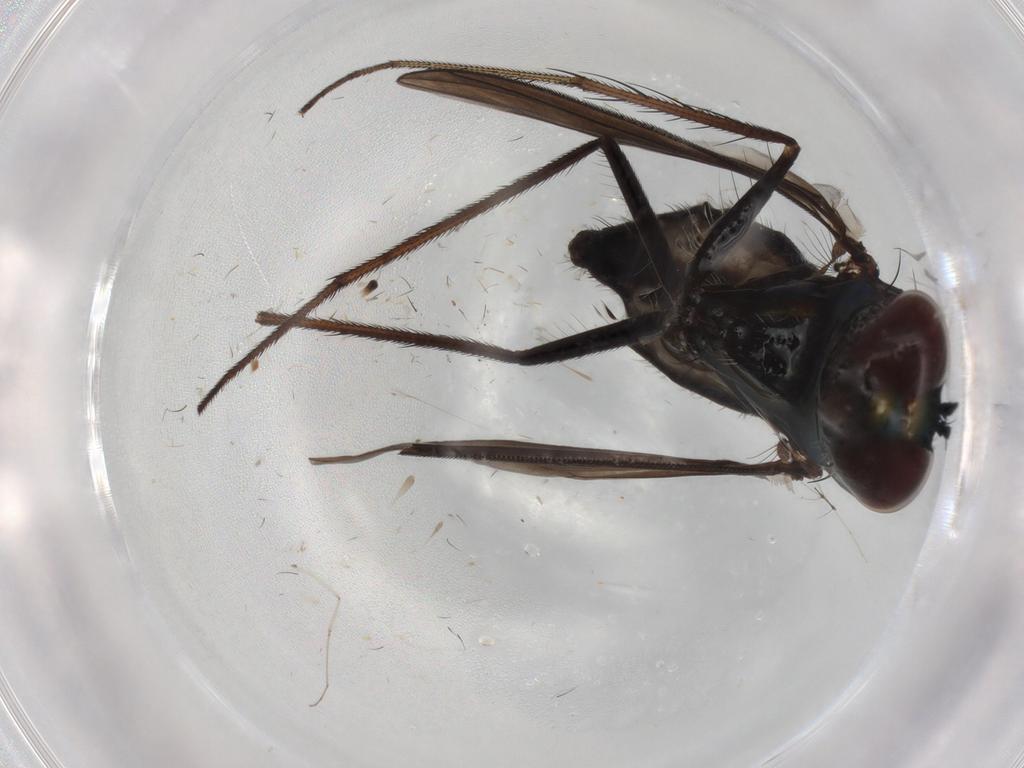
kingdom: Animalia
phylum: Arthropoda
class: Insecta
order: Diptera
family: Dolichopodidae
